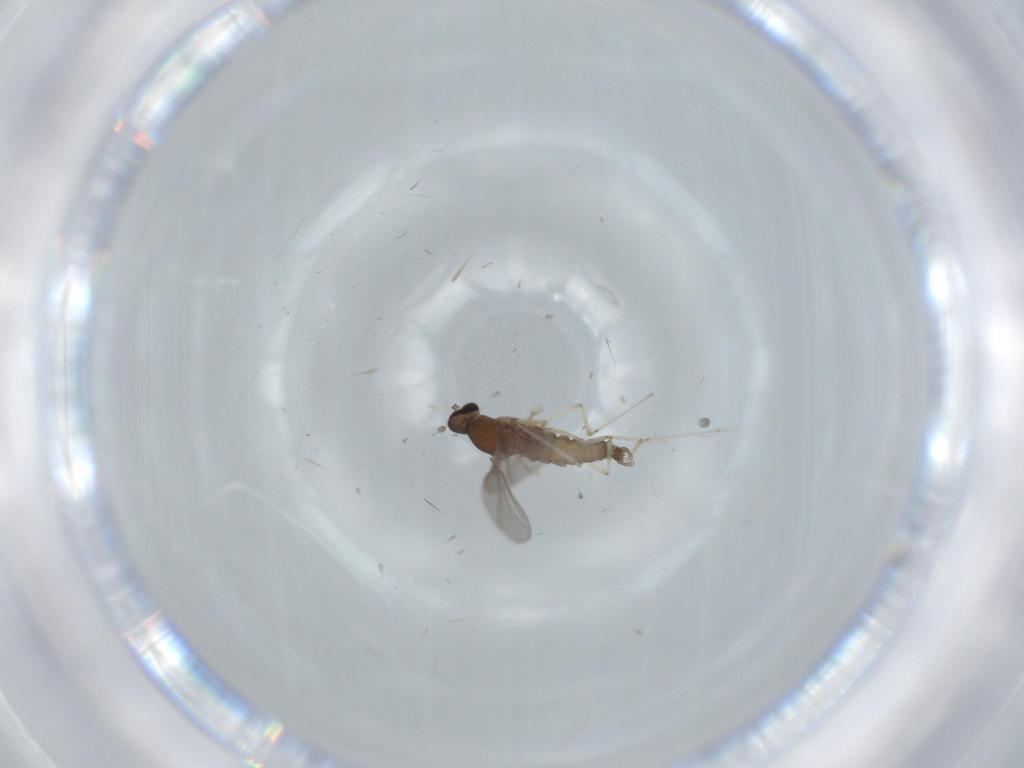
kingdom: Animalia
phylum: Arthropoda
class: Insecta
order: Diptera
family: Cecidomyiidae
